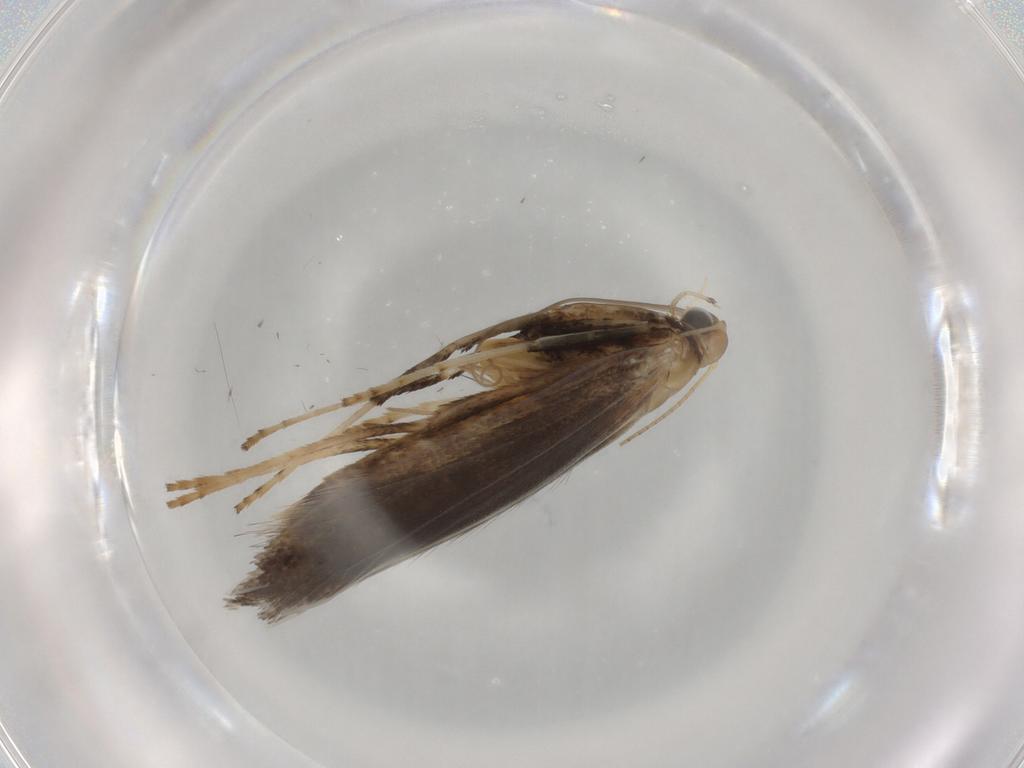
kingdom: Animalia
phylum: Arthropoda
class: Insecta
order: Lepidoptera
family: Gracillariidae
